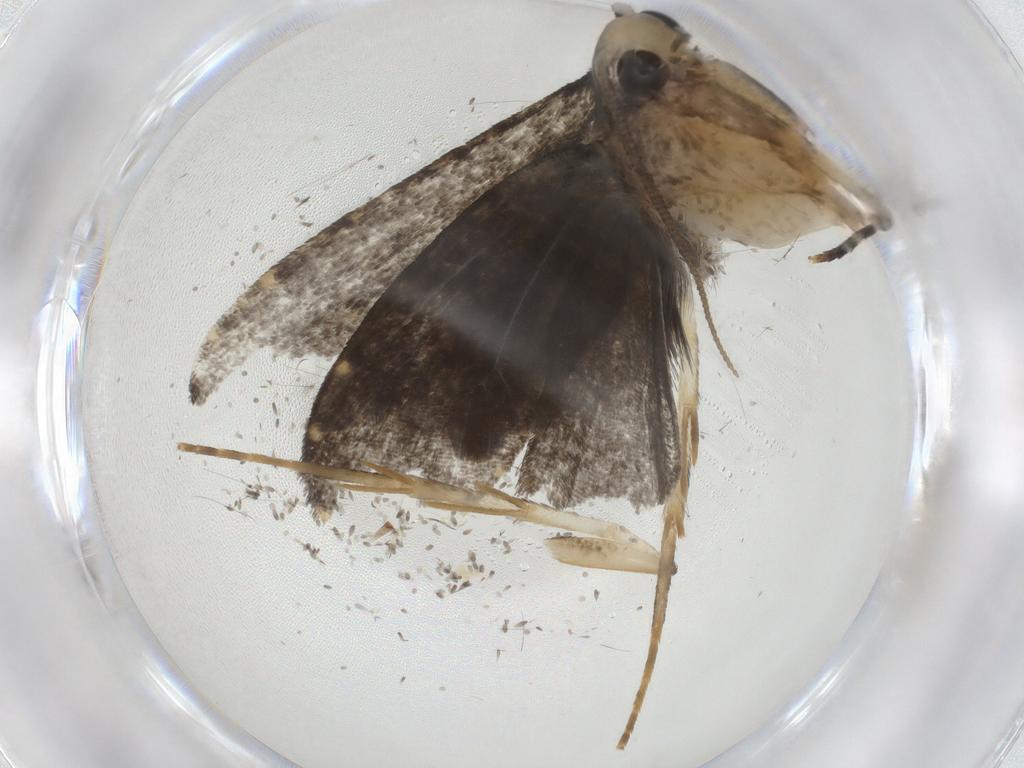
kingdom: Animalia
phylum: Arthropoda
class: Insecta
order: Lepidoptera
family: Tineidae
